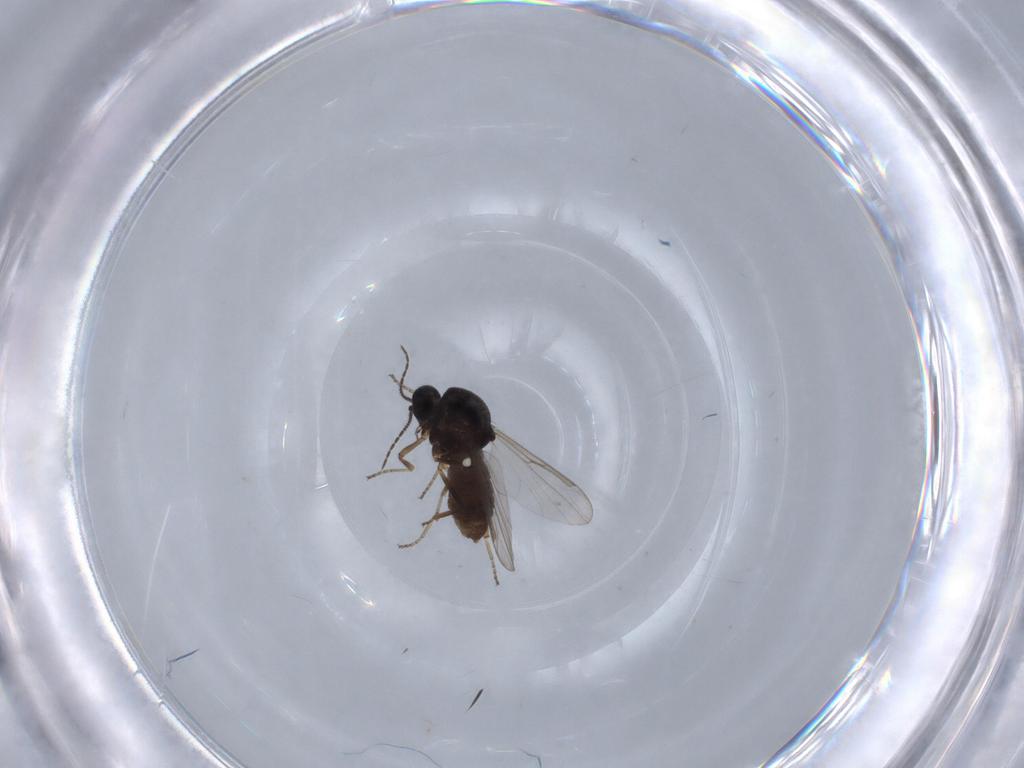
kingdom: Animalia
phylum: Arthropoda
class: Insecta
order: Diptera
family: Ceratopogonidae
